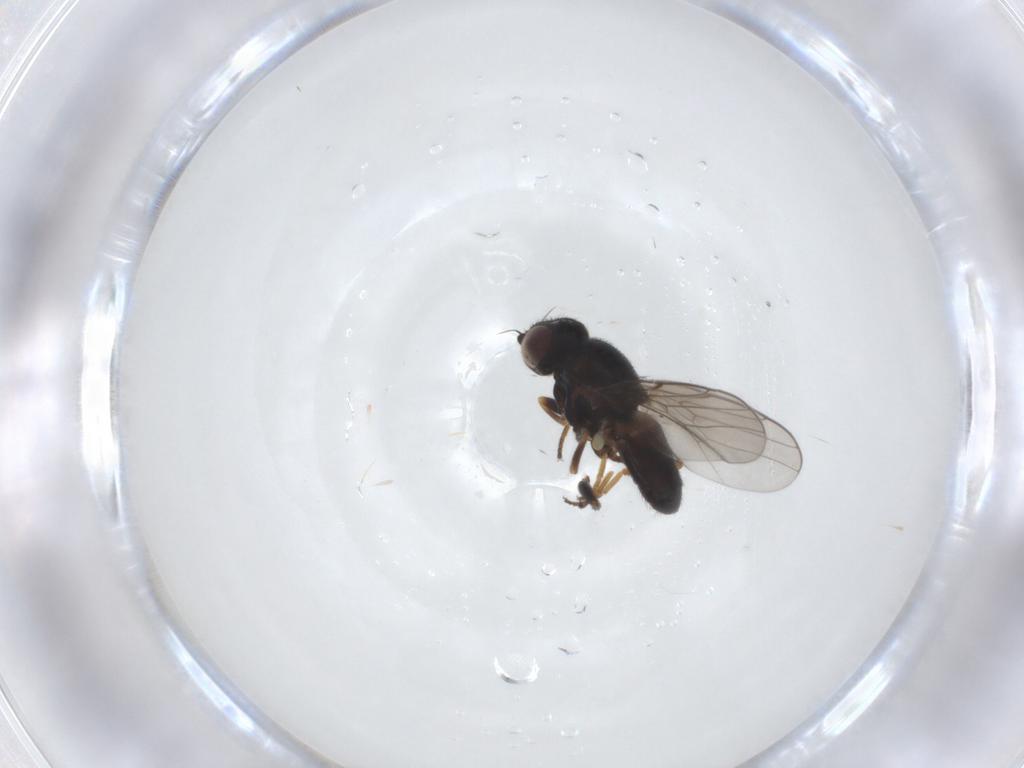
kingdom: Animalia
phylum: Arthropoda
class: Insecta
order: Diptera
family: Chloropidae
